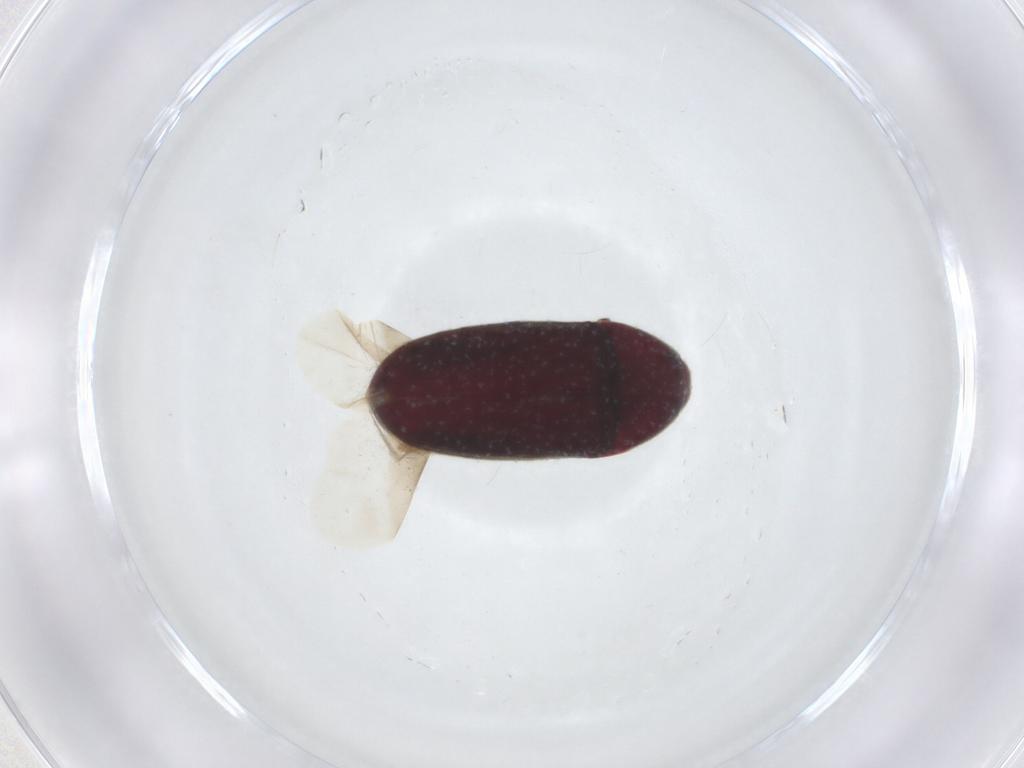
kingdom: Animalia
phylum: Arthropoda
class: Insecta
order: Coleoptera
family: Throscidae
